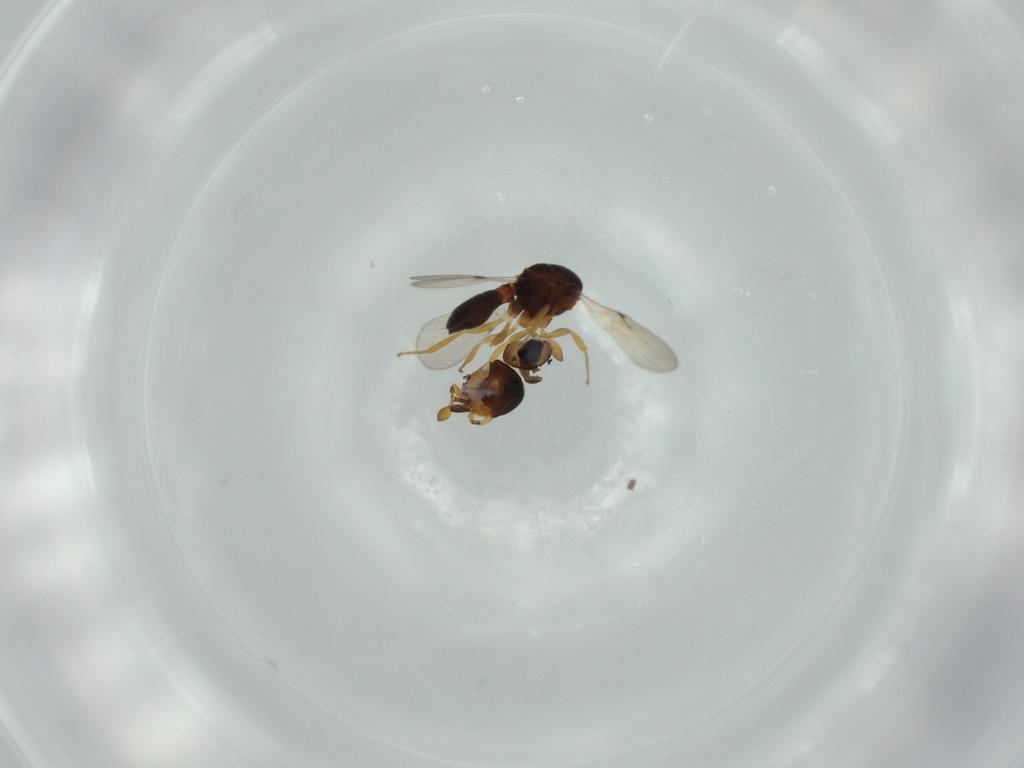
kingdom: Animalia
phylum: Arthropoda
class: Insecta
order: Hymenoptera
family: Scelionidae
